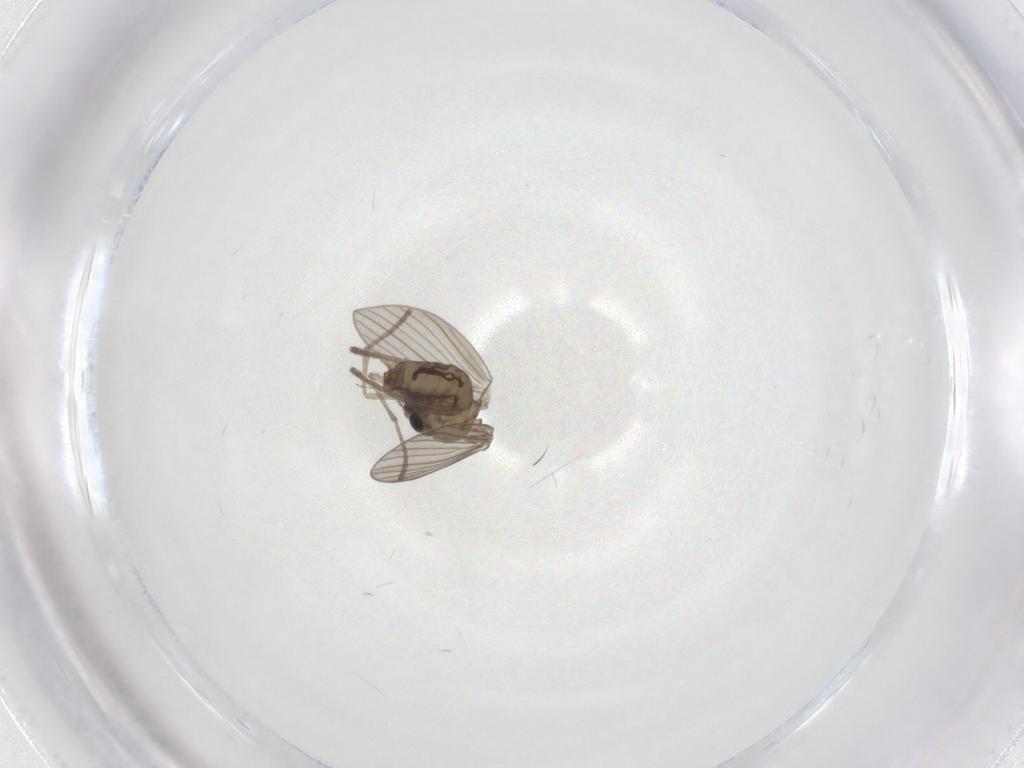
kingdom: Animalia
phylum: Arthropoda
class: Insecta
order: Diptera
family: Psychodidae
